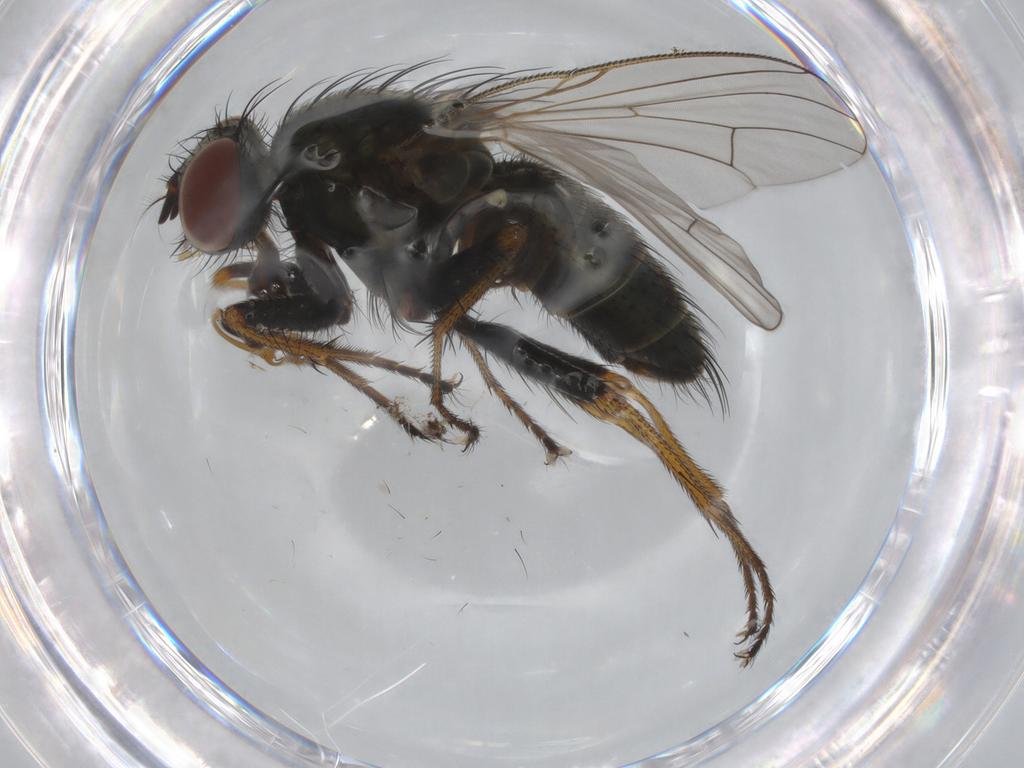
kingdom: Animalia
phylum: Arthropoda
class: Insecta
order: Diptera
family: Muscidae
